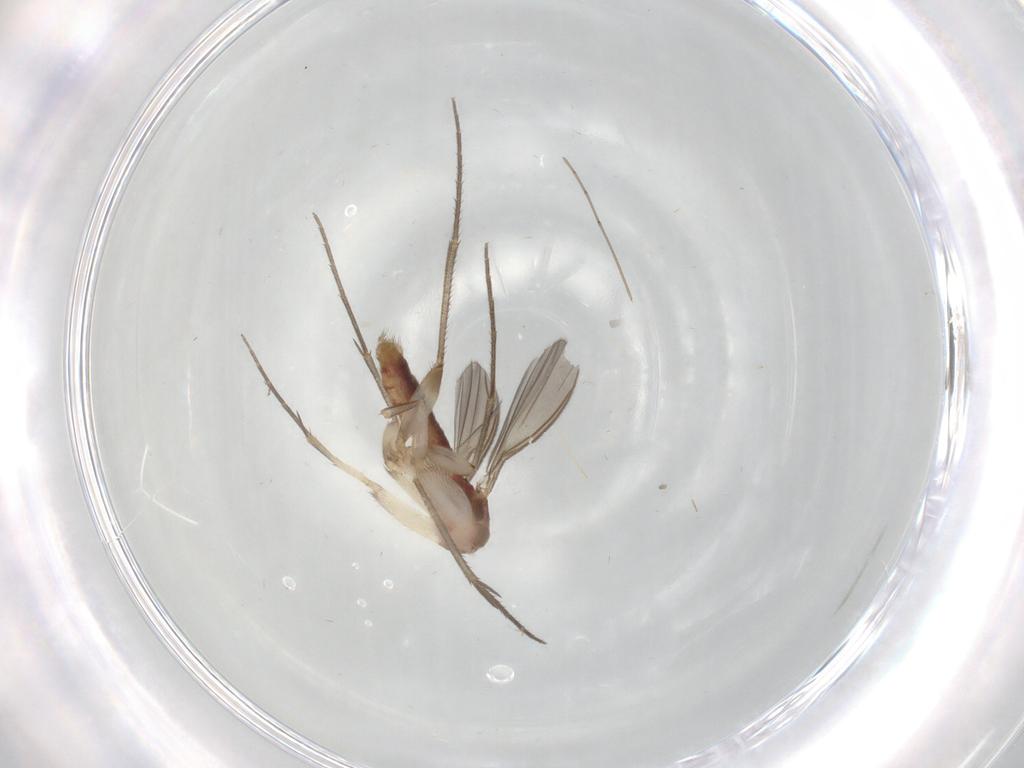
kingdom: Animalia
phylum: Arthropoda
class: Insecta
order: Diptera
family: Mycetophilidae
